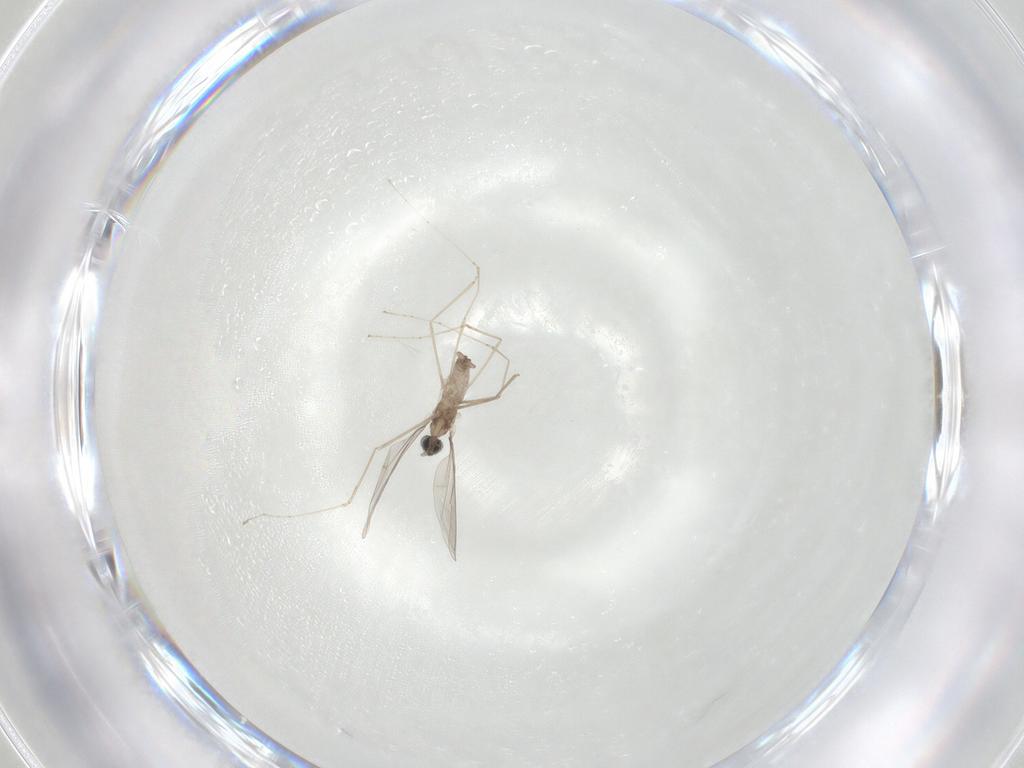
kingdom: Animalia
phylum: Arthropoda
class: Insecta
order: Diptera
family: Cecidomyiidae
